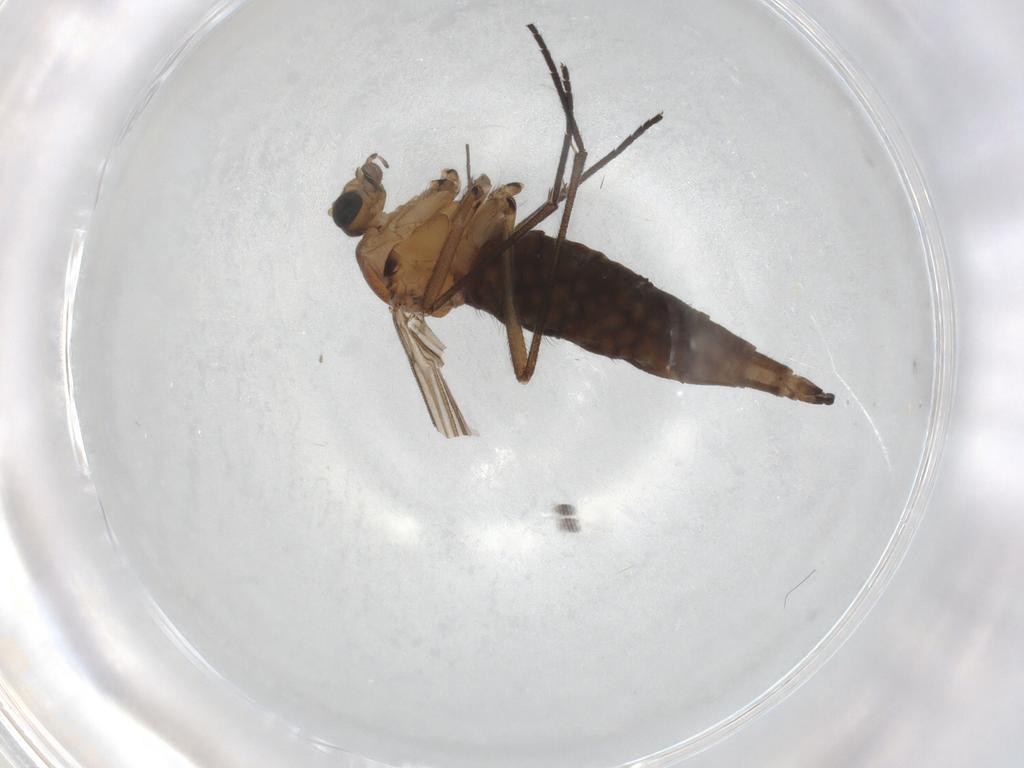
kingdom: Animalia
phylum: Arthropoda
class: Insecta
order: Diptera
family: Sciaridae
